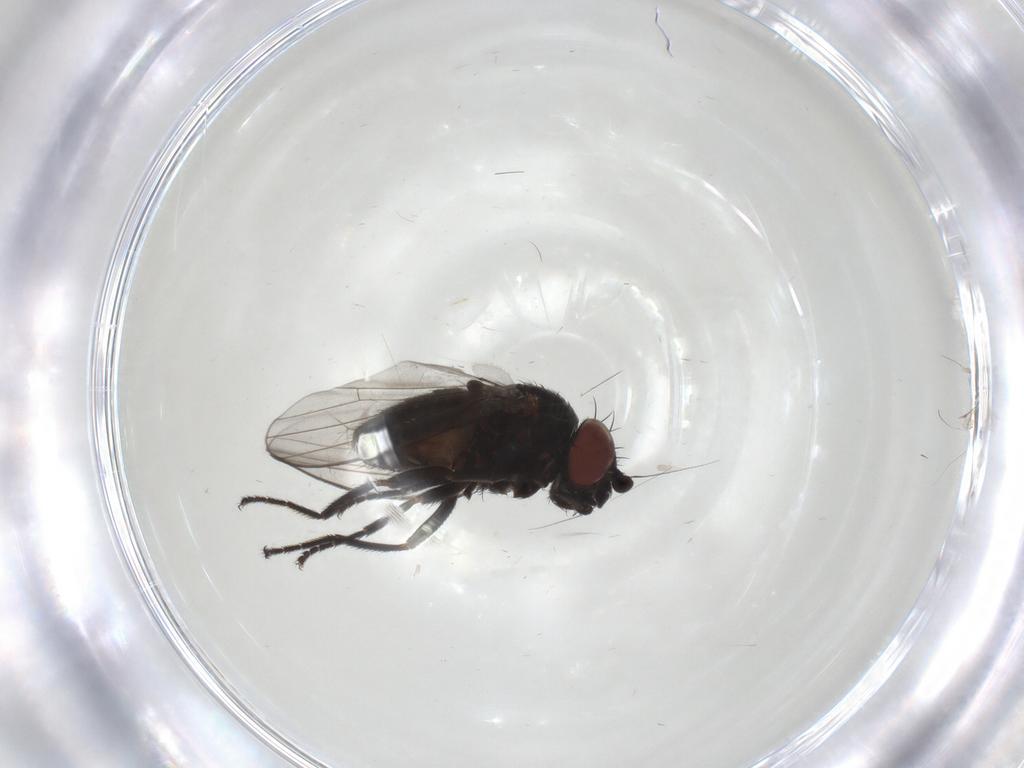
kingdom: Animalia
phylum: Arthropoda
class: Insecta
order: Diptera
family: Milichiidae
